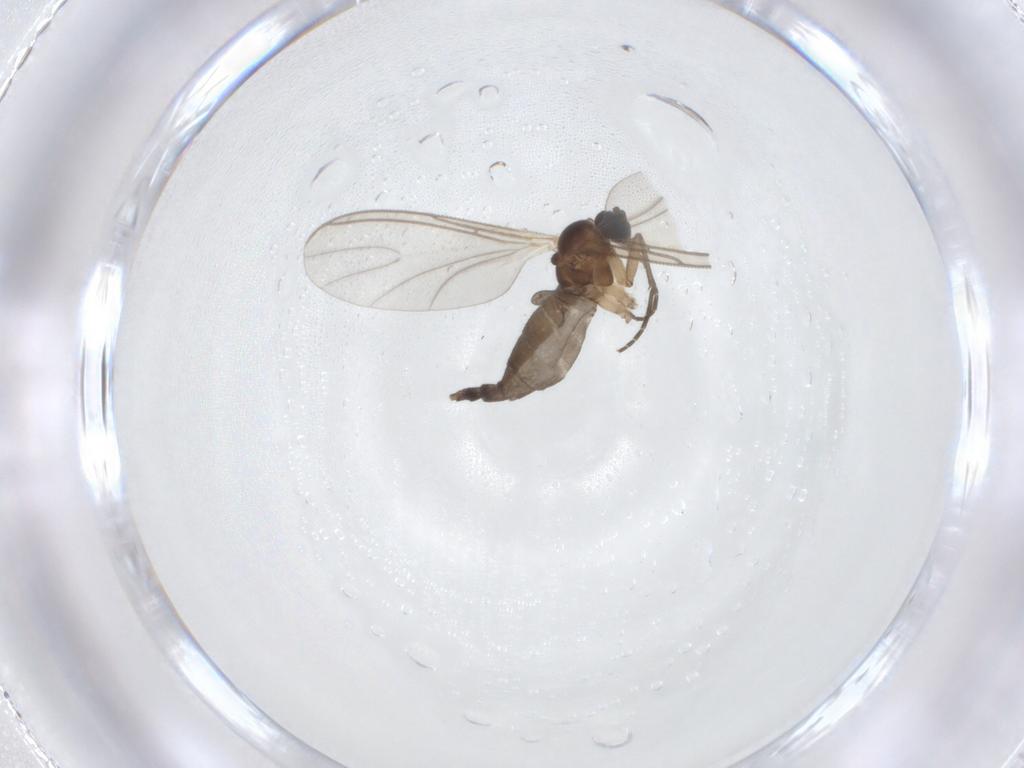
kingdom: Animalia
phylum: Arthropoda
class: Insecta
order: Diptera
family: Sciaridae
